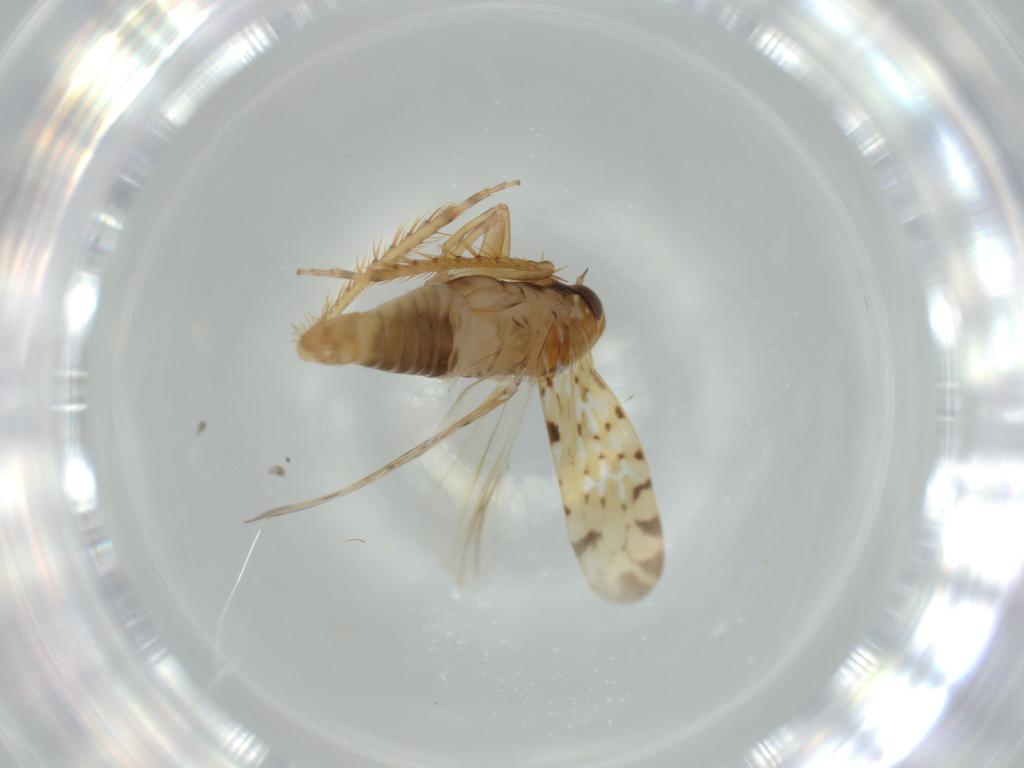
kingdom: Animalia
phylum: Arthropoda
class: Insecta
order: Hemiptera
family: Cicadellidae
